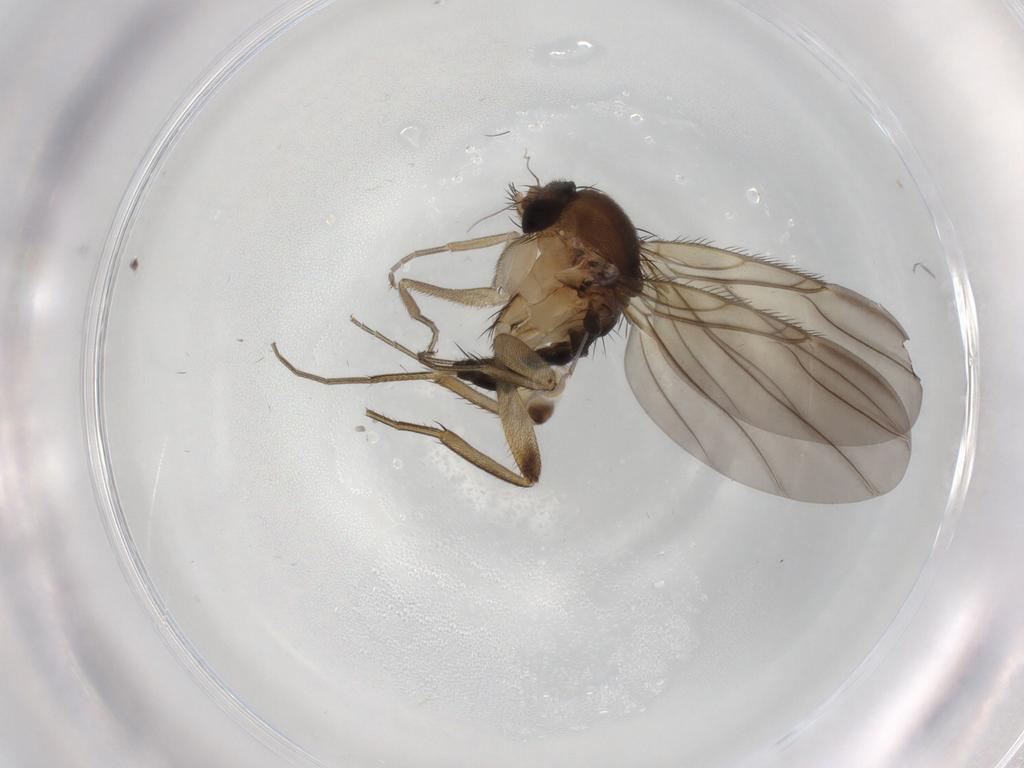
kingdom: Animalia
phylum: Arthropoda
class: Insecta
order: Diptera
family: Phoridae
